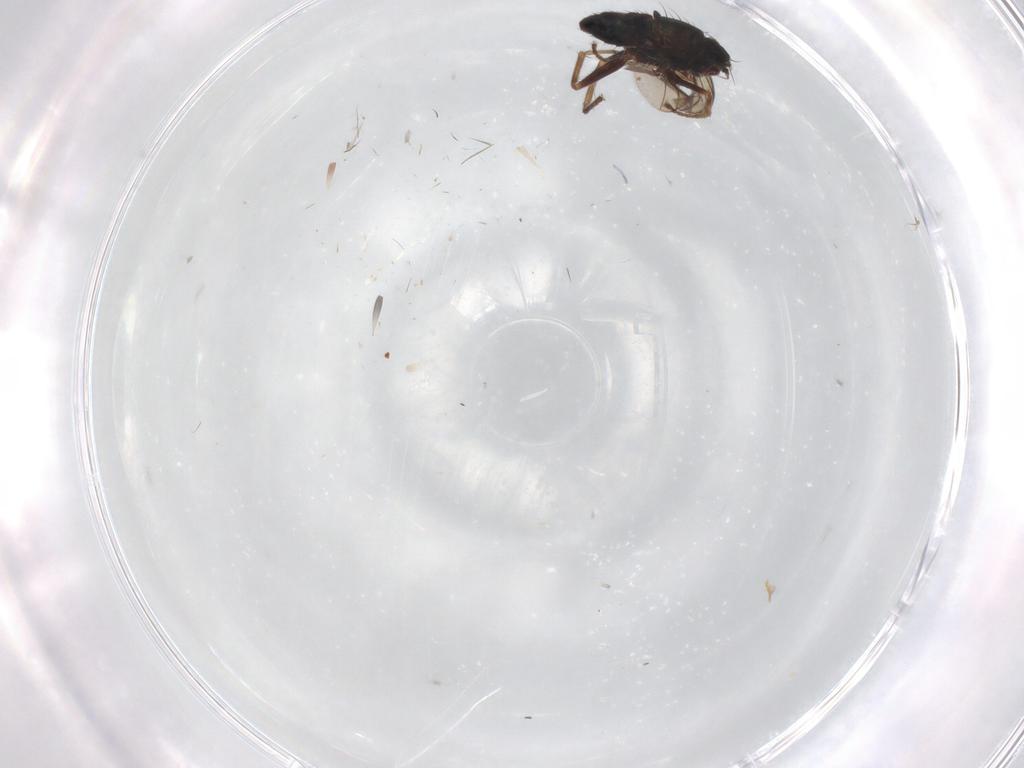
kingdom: Animalia
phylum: Arthropoda
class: Insecta
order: Diptera
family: Dolichopodidae
